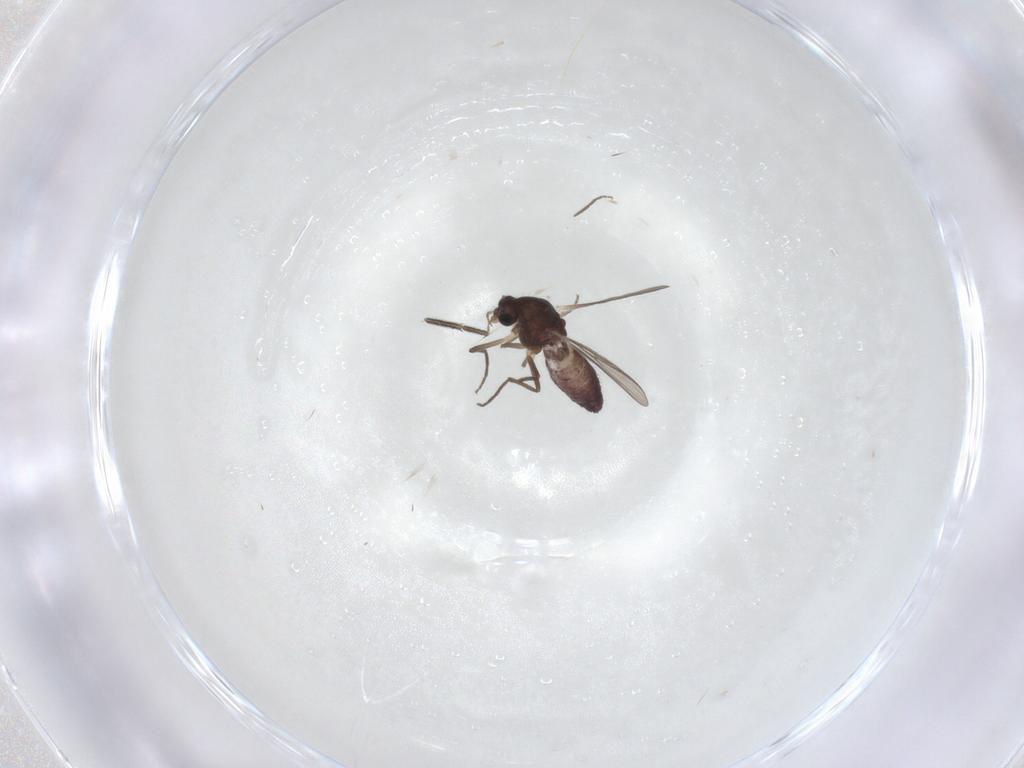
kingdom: Animalia
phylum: Arthropoda
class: Insecta
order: Diptera
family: Chironomidae
